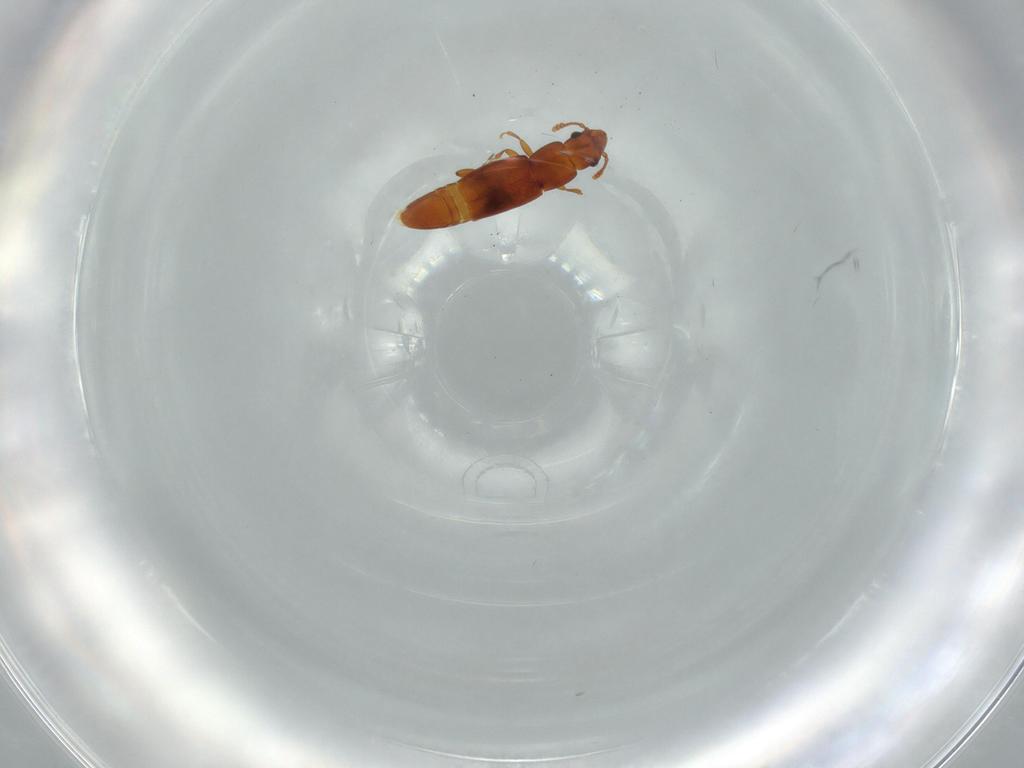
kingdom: Animalia
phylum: Arthropoda
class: Insecta
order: Coleoptera
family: Smicripidae
